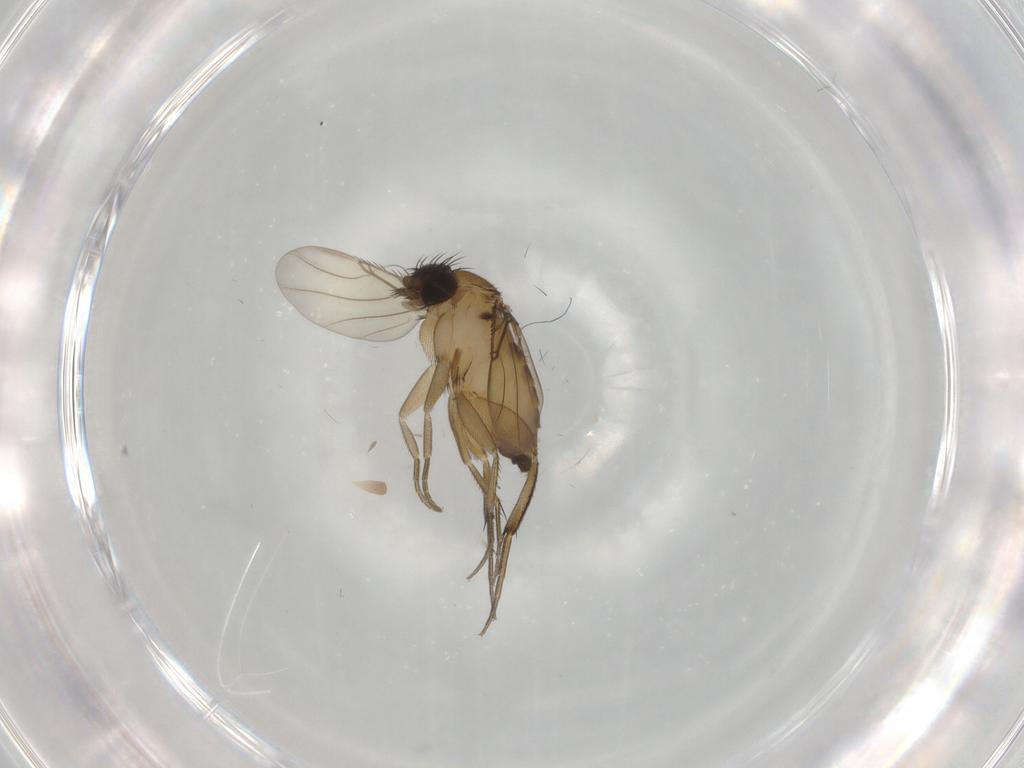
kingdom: Animalia
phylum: Arthropoda
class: Insecta
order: Diptera
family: Phoridae
